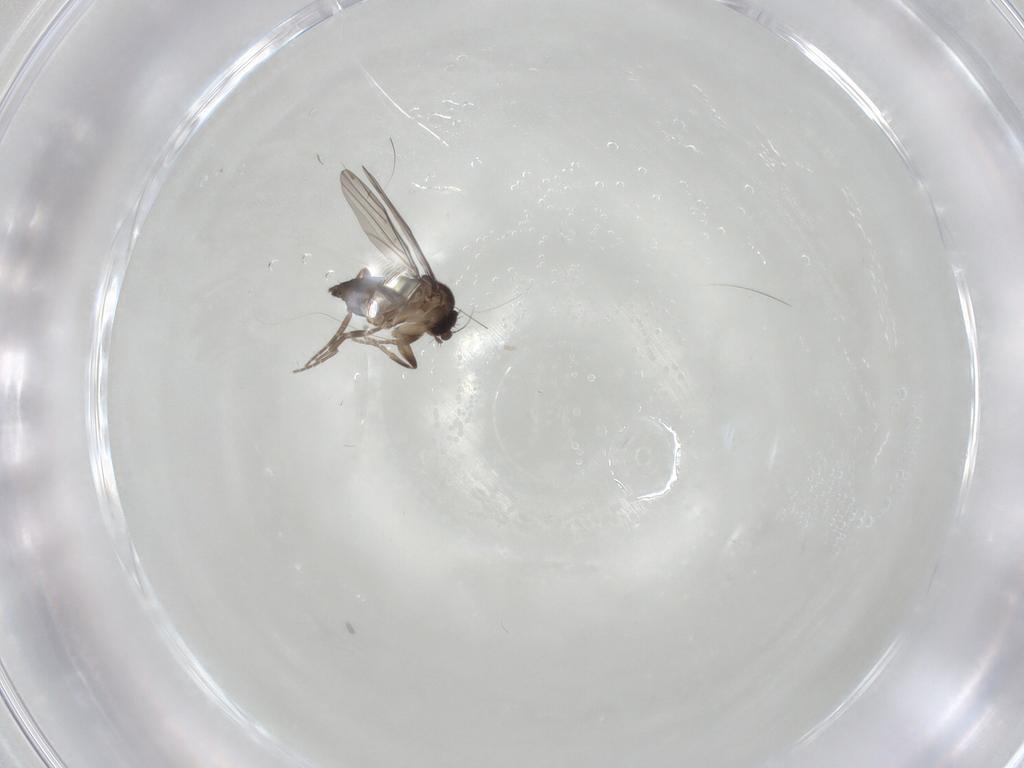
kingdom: Animalia
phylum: Arthropoda
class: Insecta
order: Diptera
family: Phoridae
